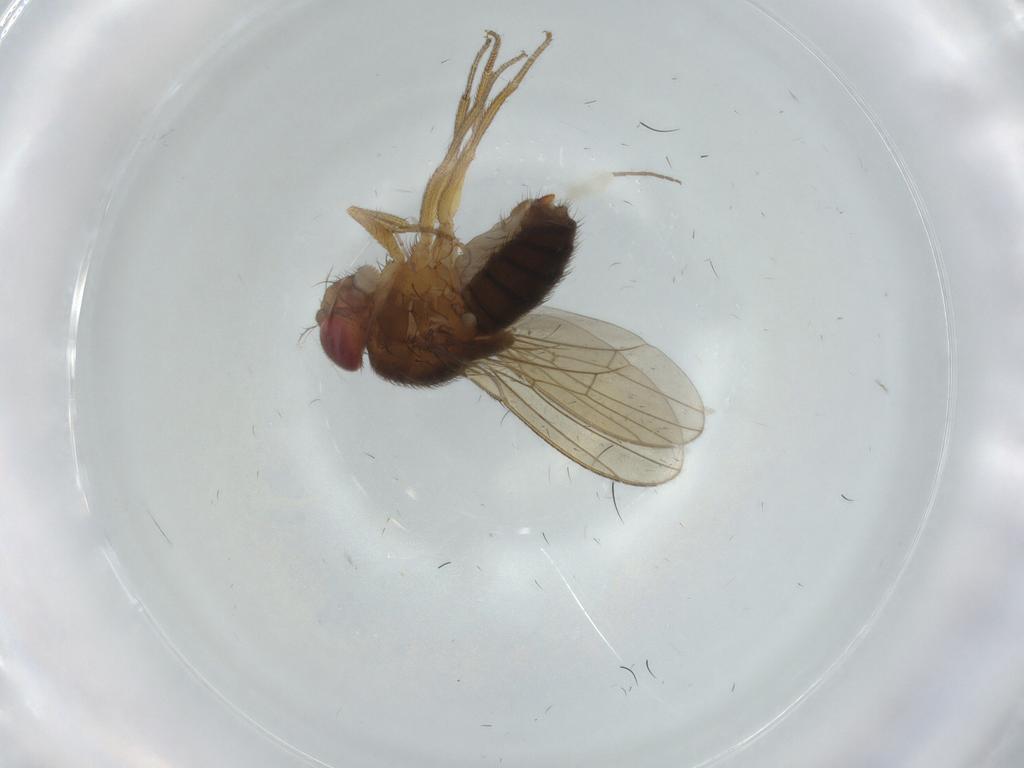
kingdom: Animalia
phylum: Arthropoda
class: Insecta
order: Diptera
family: Drosophilidae
